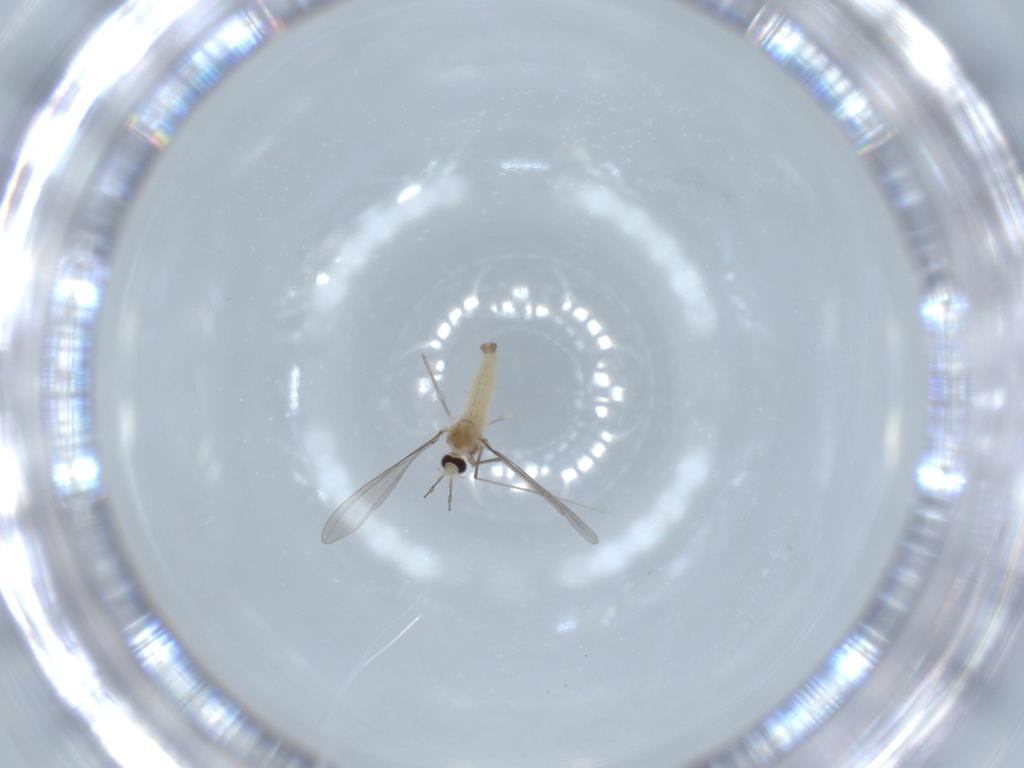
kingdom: Animalia
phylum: Arthropoda
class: Insecta
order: Diptera
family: Cecidomyiidae
